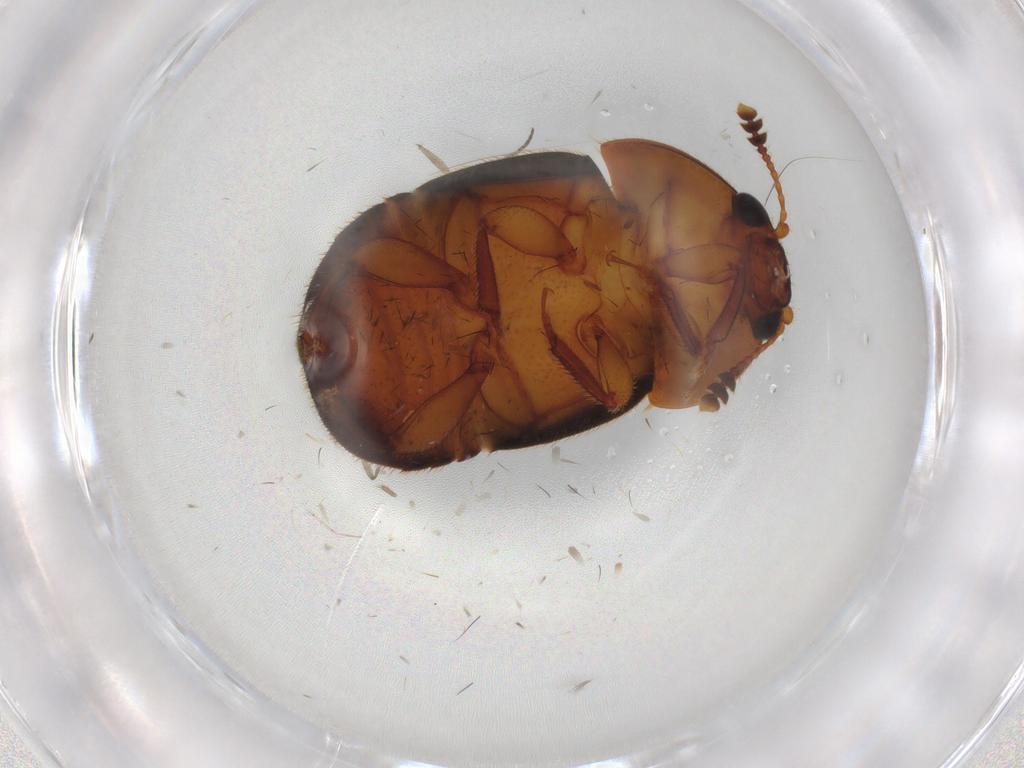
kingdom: Animalia
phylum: Arthropoda
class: Insecta
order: Coleoptera
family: Nitidulidae
